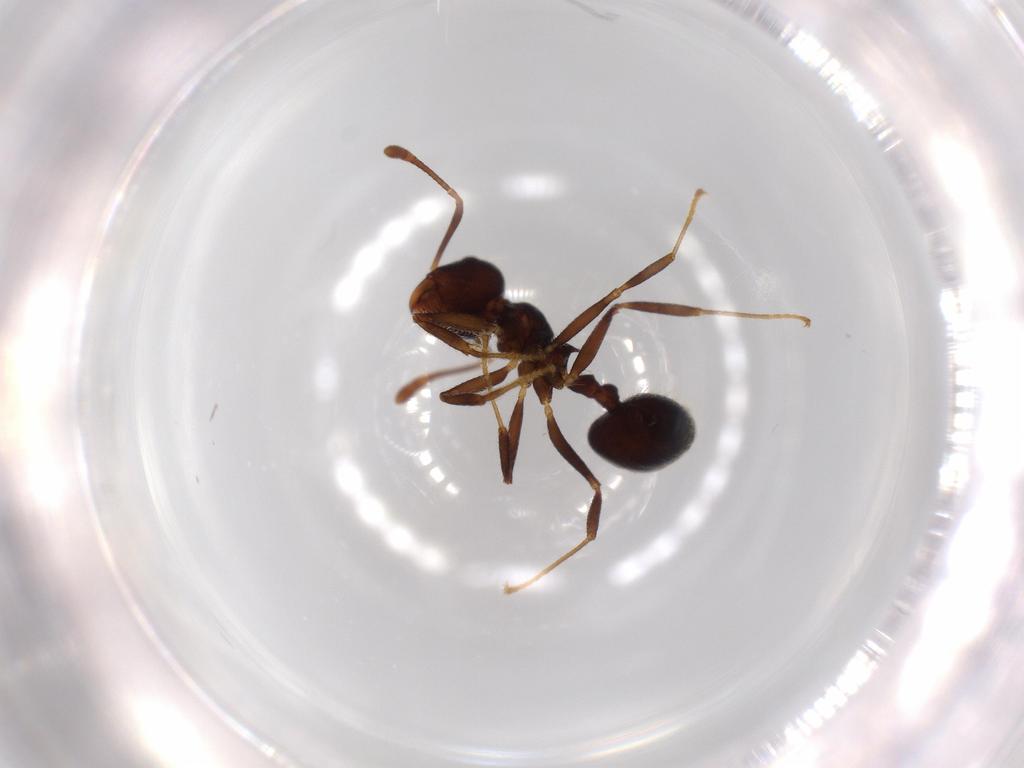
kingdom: Animalia
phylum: Arthropoda
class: Insecta
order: Hymenoptera
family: Formicidae
